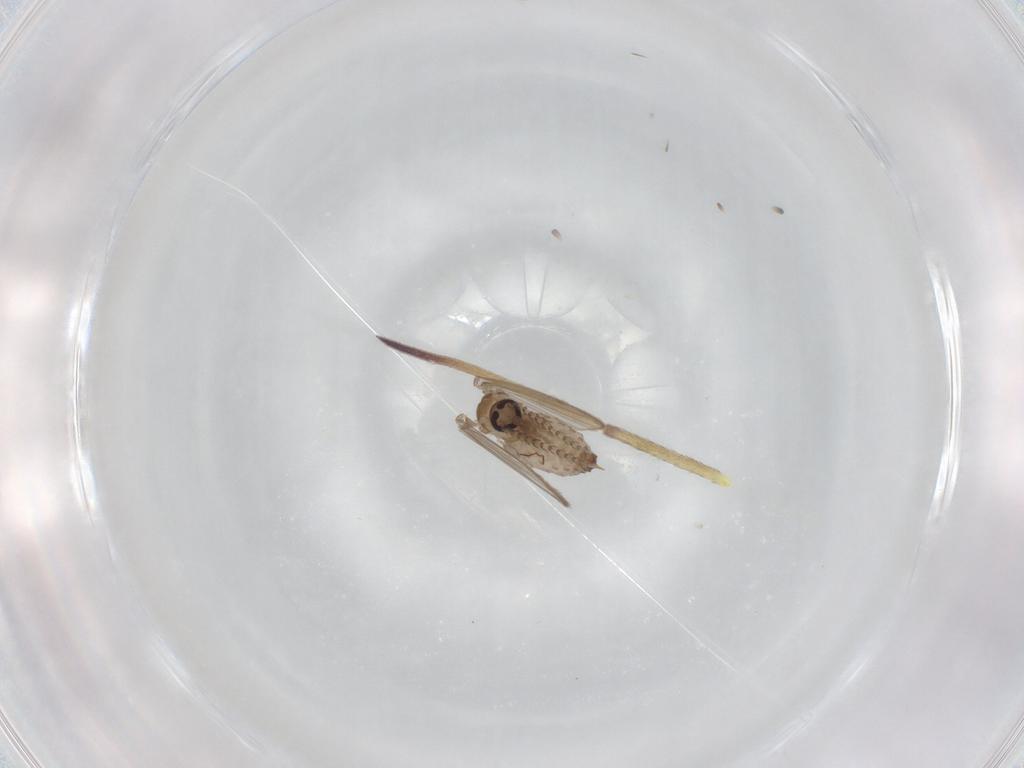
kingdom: Animalia
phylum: Arthropoda
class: Insecta
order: Diptera
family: Psychodidae
